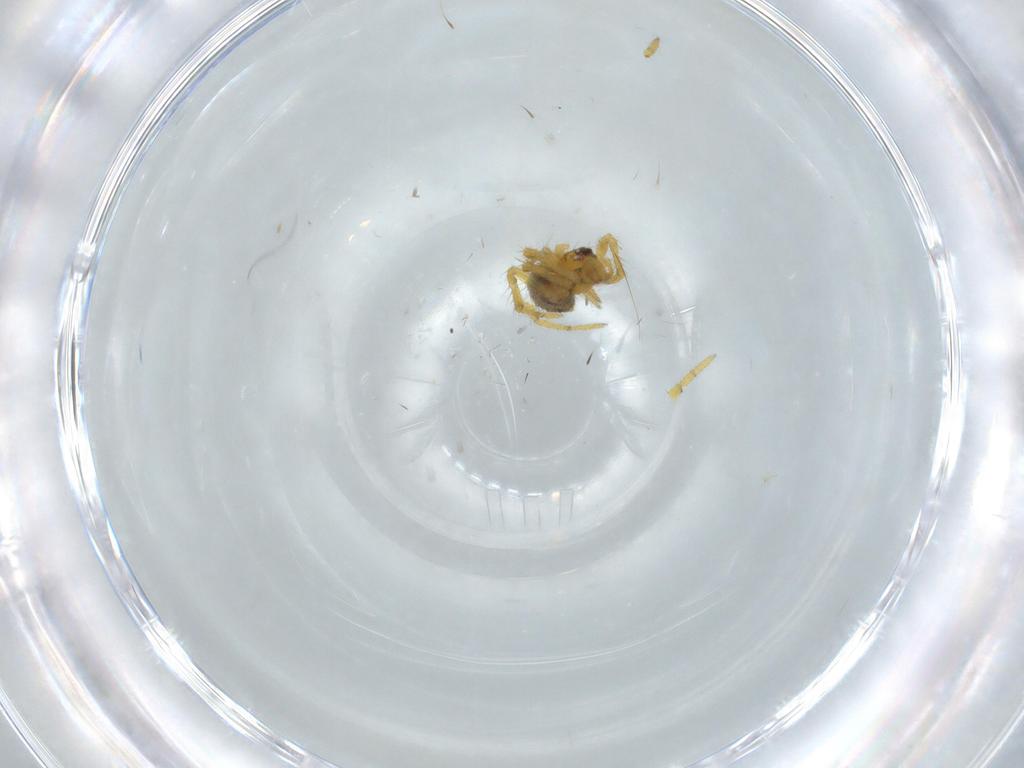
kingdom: Animalia
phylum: Arthropoda
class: Arachnida
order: Araneae
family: Theridiidae
